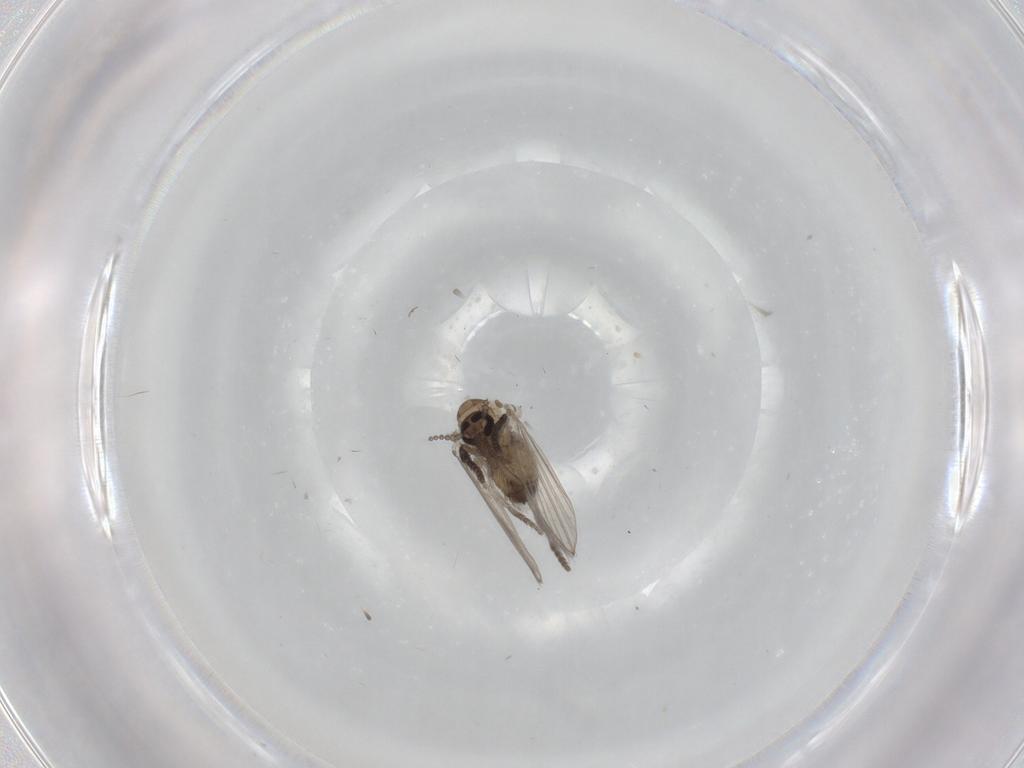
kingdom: Animalia
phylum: Arthropoda
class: Insecta
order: Diptera
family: Psychodidae
